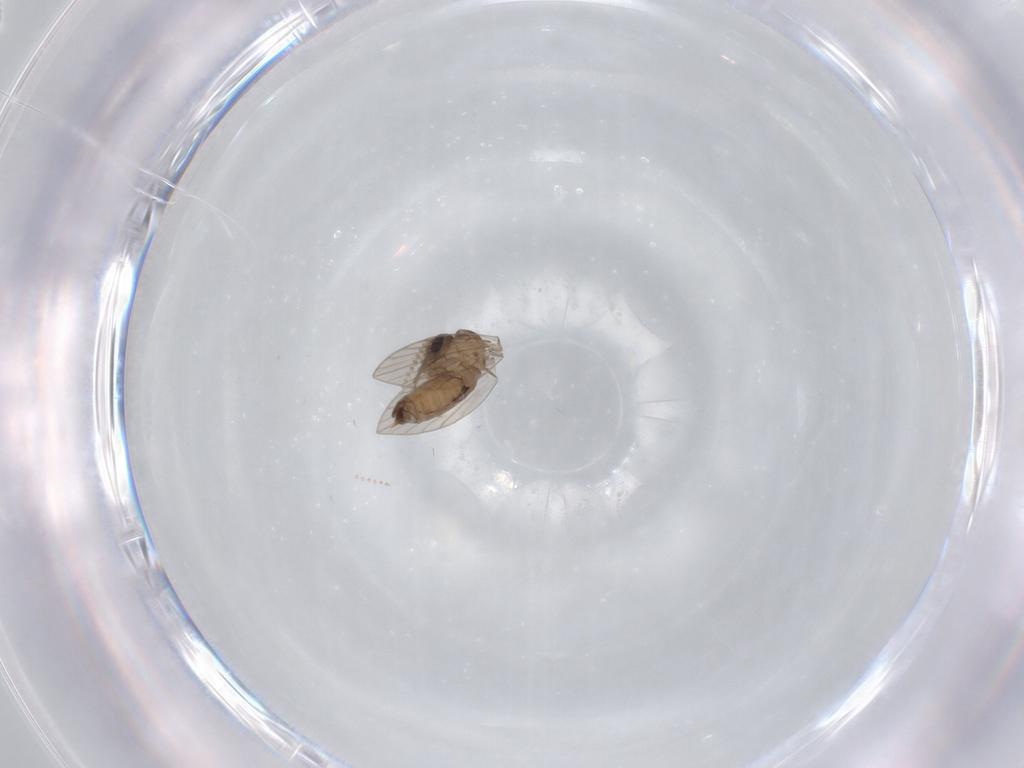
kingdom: Animalia
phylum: Arthropoda
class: Insecta
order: Diptera
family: Psychodidae
